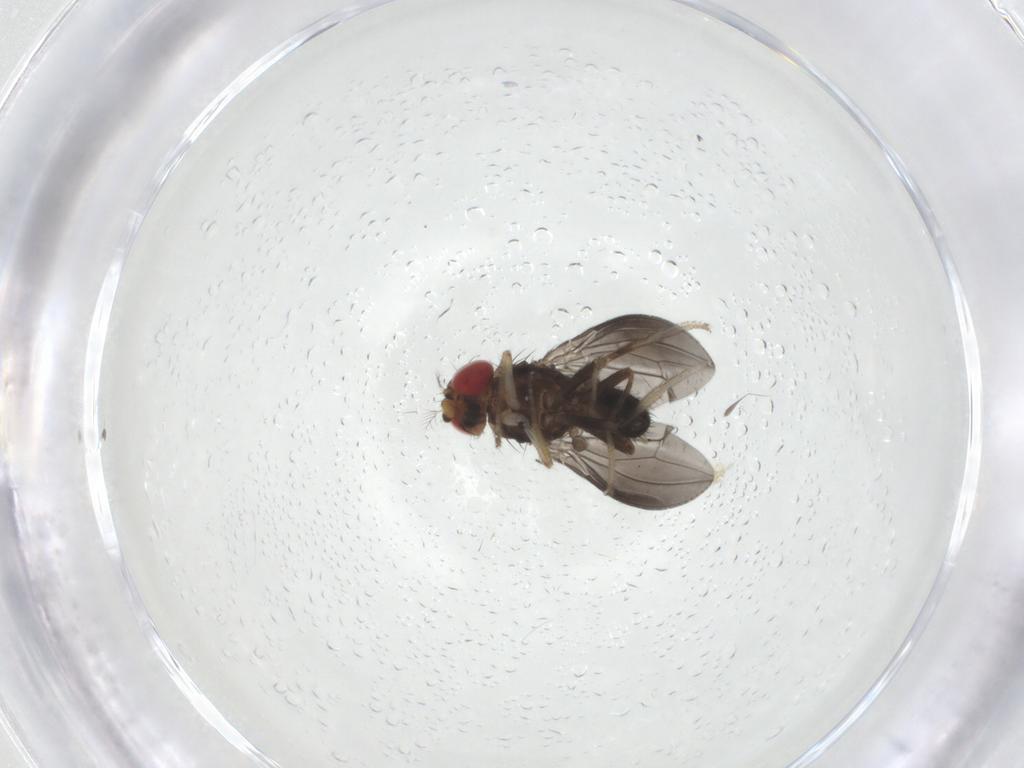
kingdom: Animalia
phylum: Arthropoda
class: Insecta
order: Diptera
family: Drosophilidae
